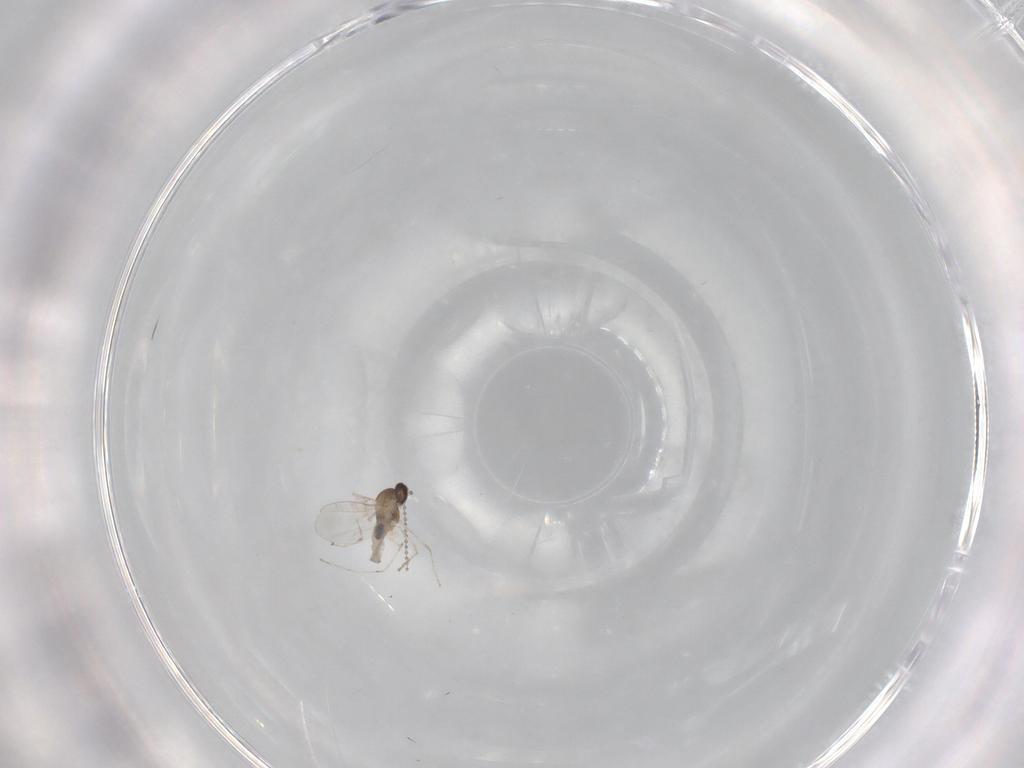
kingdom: Animalia
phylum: Arthropoda
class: Insecta
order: Diptera
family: Cecidomyiidae
